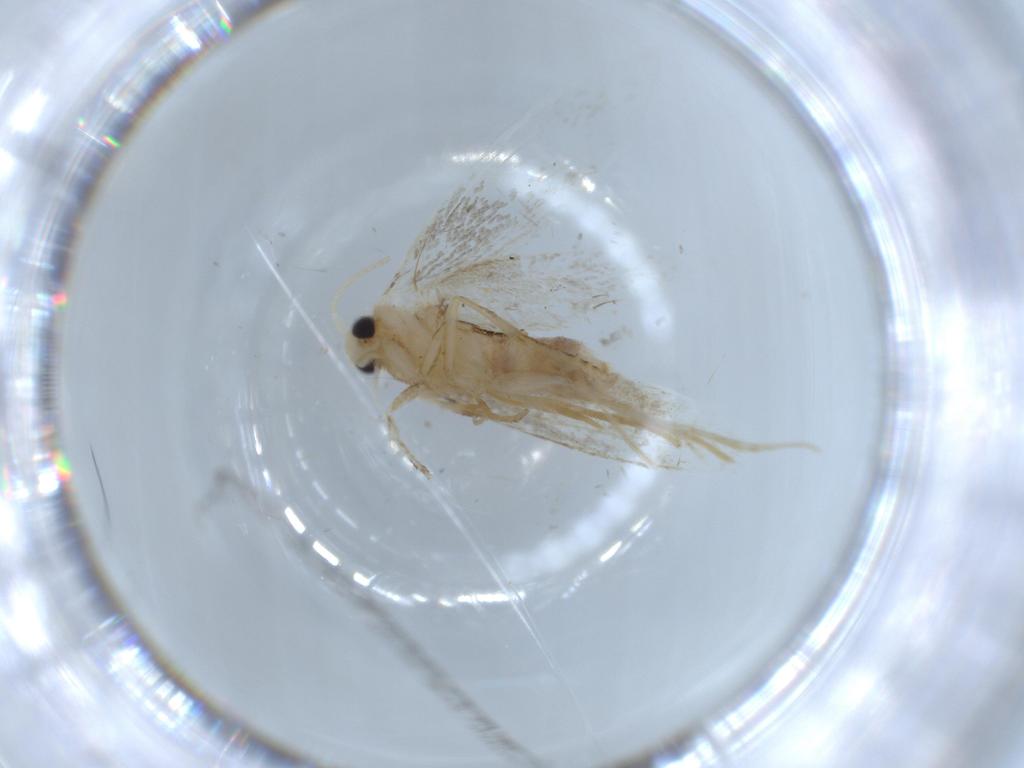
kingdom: Animalia
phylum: Arthropoda
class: Insecta
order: Lepidoptera
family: Dryadaulidae
